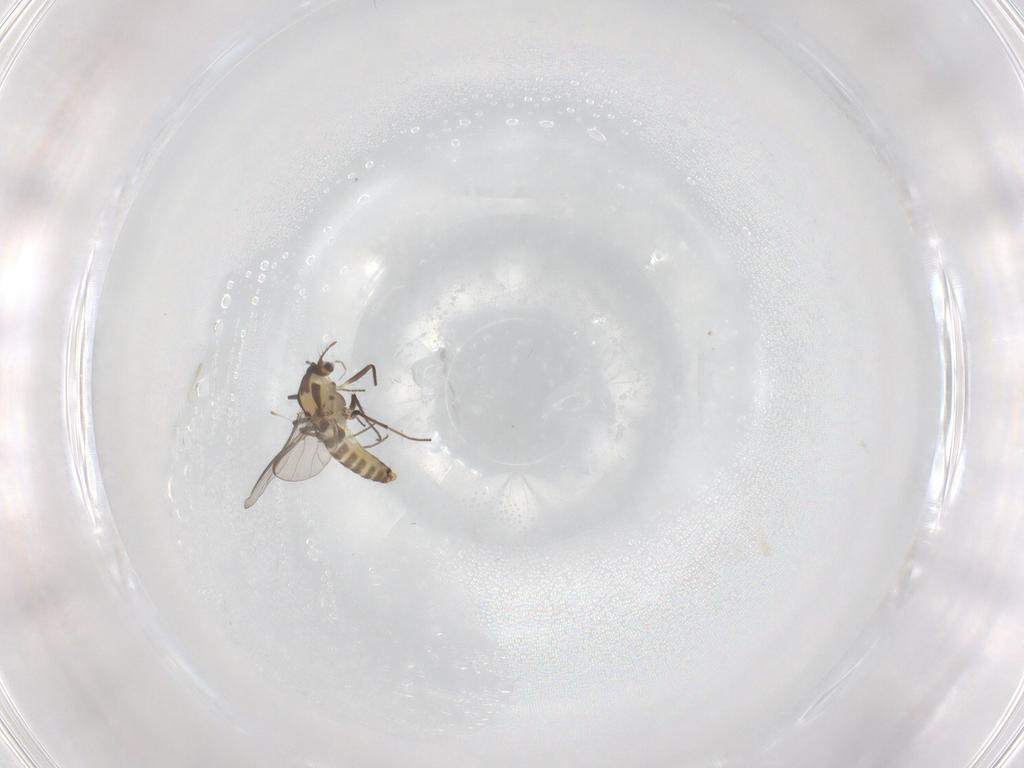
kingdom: Animalia
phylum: Arthropoda
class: Insecta
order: Diptera
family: Chironomidae
